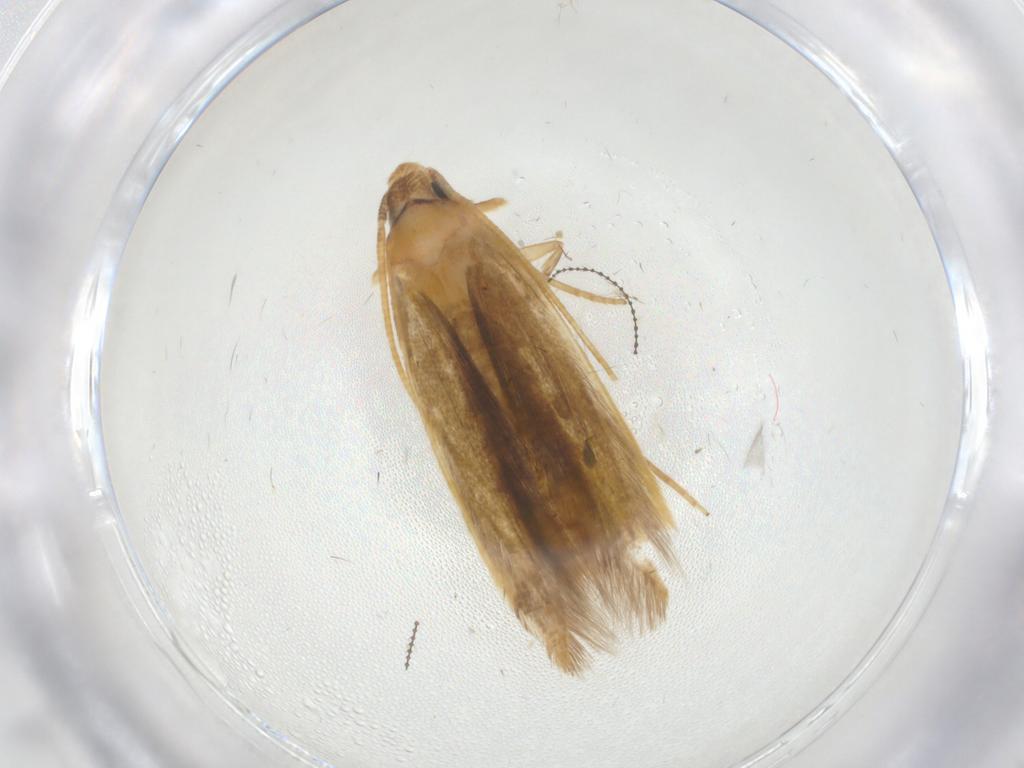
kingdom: Animalia
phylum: Arthropoda
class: Insecta
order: Lepidoptera
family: Tineidae
